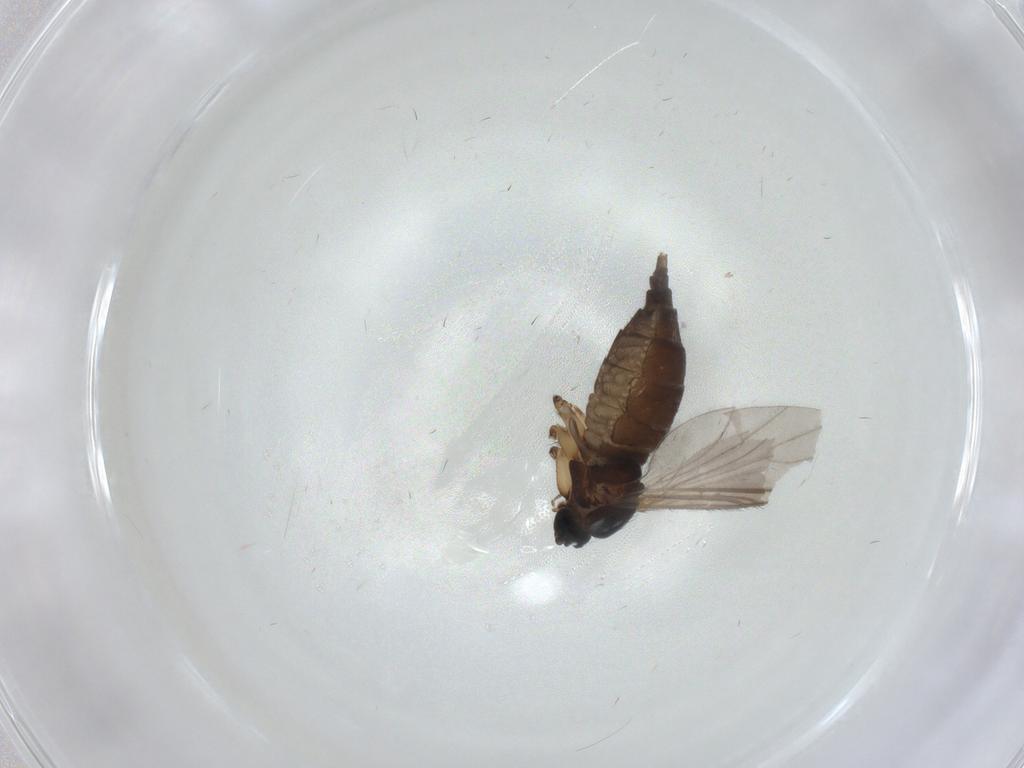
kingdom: Animalia
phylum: Arthropoda
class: Insecta
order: Diptera
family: Sciaridae
